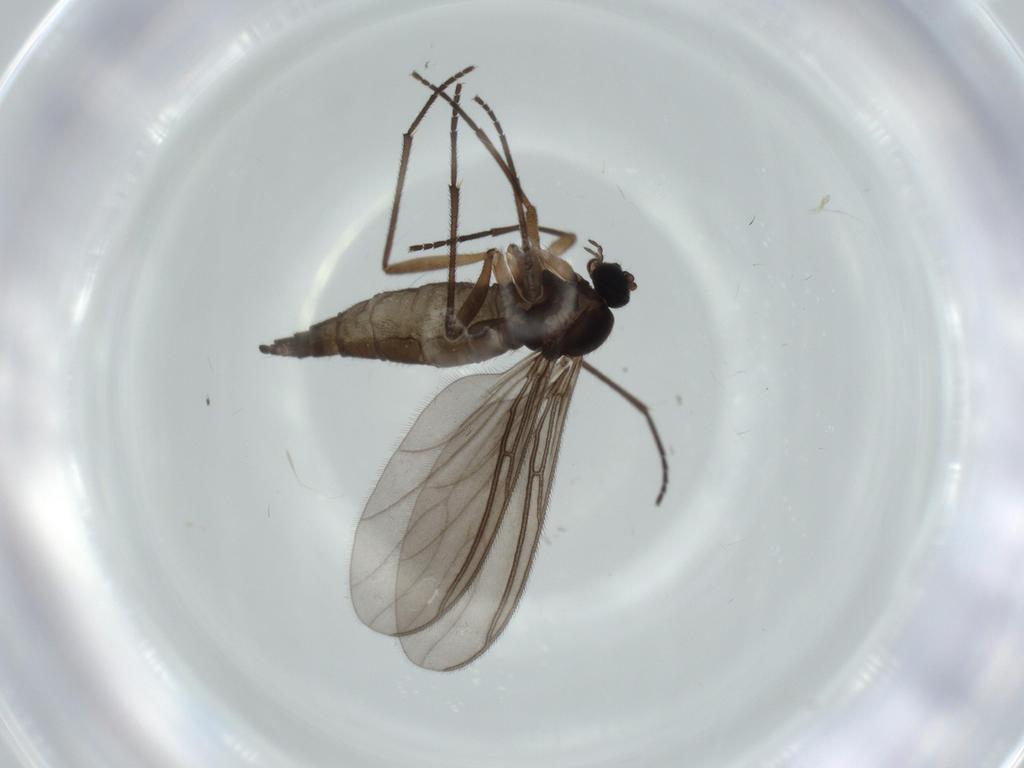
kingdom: Animalia
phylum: Arthropoda
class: Insecta
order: Diptera
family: Sciaridae
